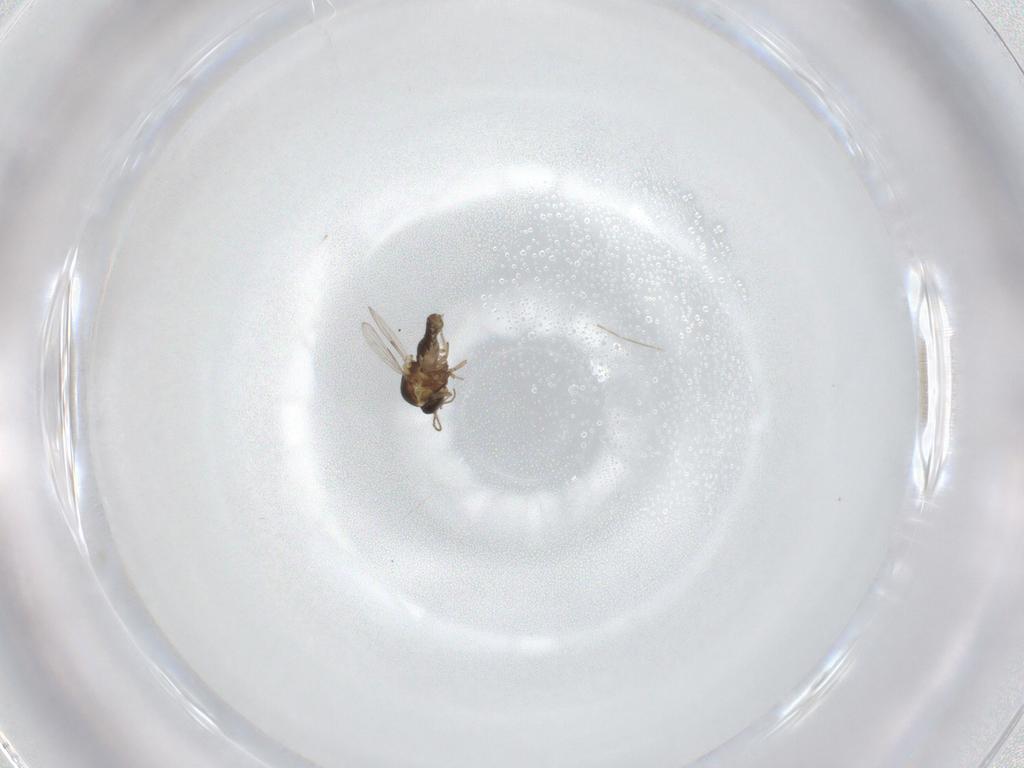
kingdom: Animalia
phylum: Arthropoda
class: Insecta
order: Diptera
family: Ceratopogonidae
